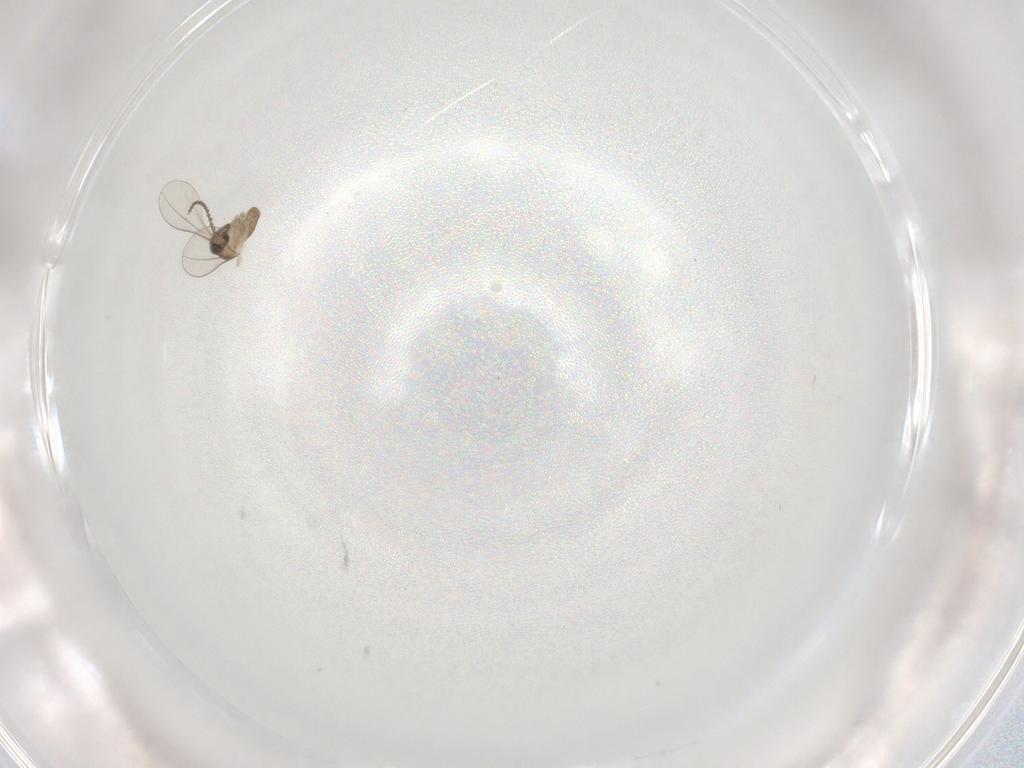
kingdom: Animalia
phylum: Arthropoda
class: Insecta
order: Diptera
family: Cecidomyiidae
